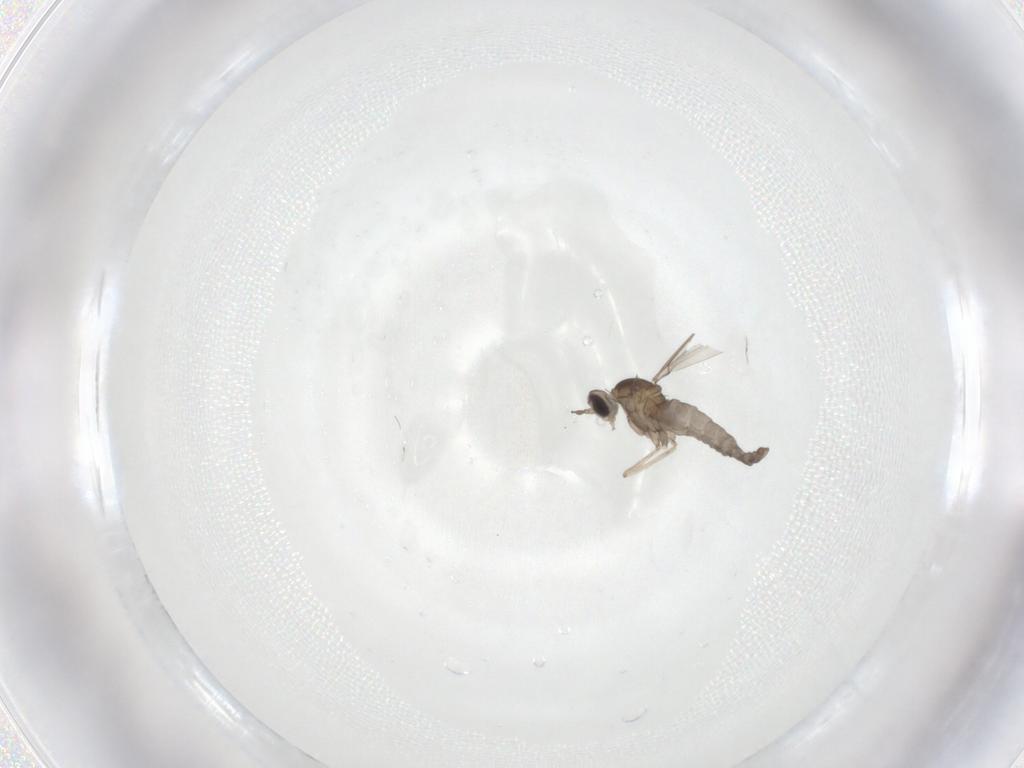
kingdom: Animalia
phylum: Arthropoda
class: Insecta
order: Diptera
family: Cecidomyiidae
